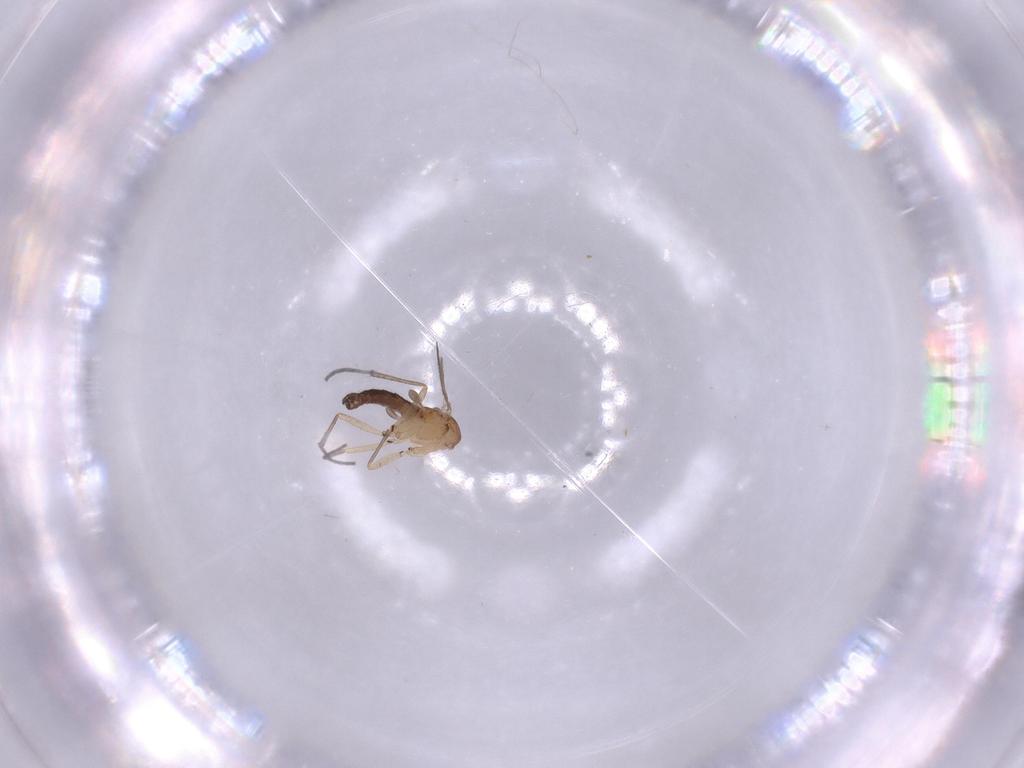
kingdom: Animalia
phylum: Arthropoda
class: Insecta
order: Diptera
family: Sciaridae
